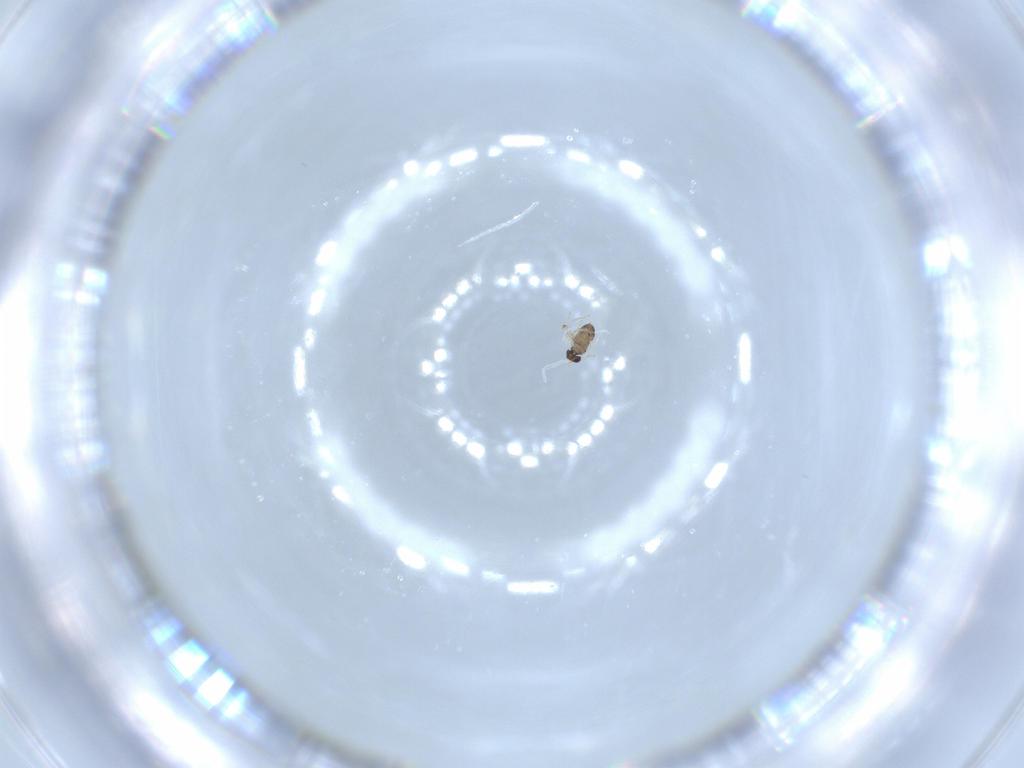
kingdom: Animalia
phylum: Arthropoda
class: Insecta
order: Hymenoptera
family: Mymaridae
